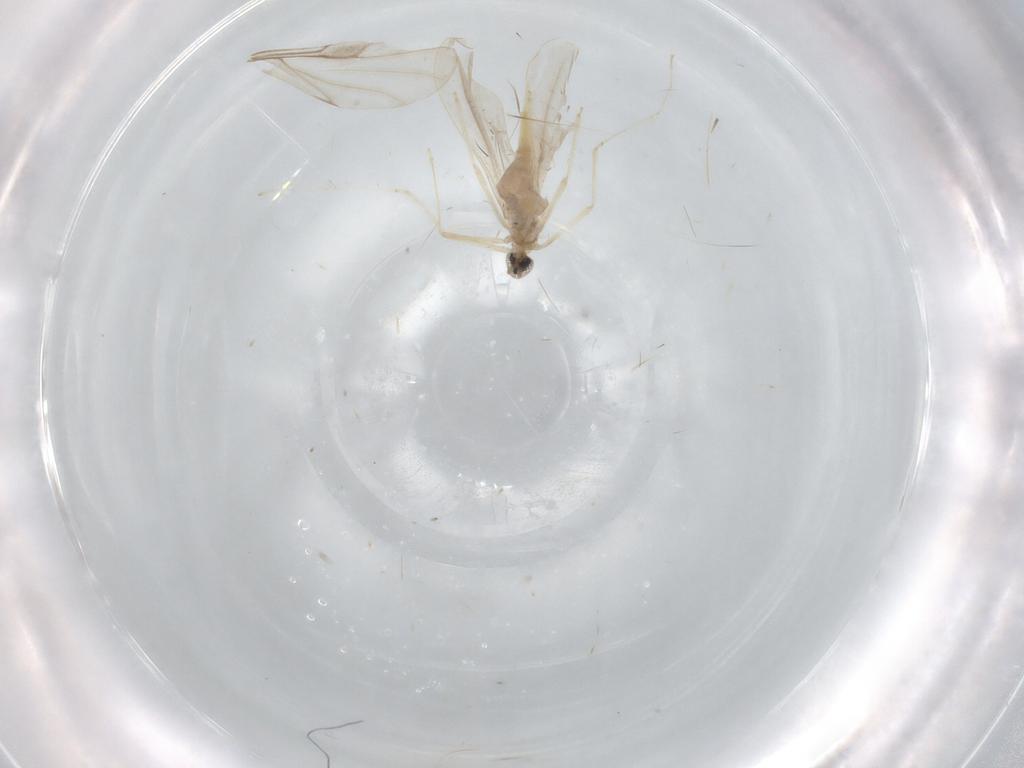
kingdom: Animalia
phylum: Arthropoda
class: Insecta
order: Diptera
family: Cecidomyiidae
